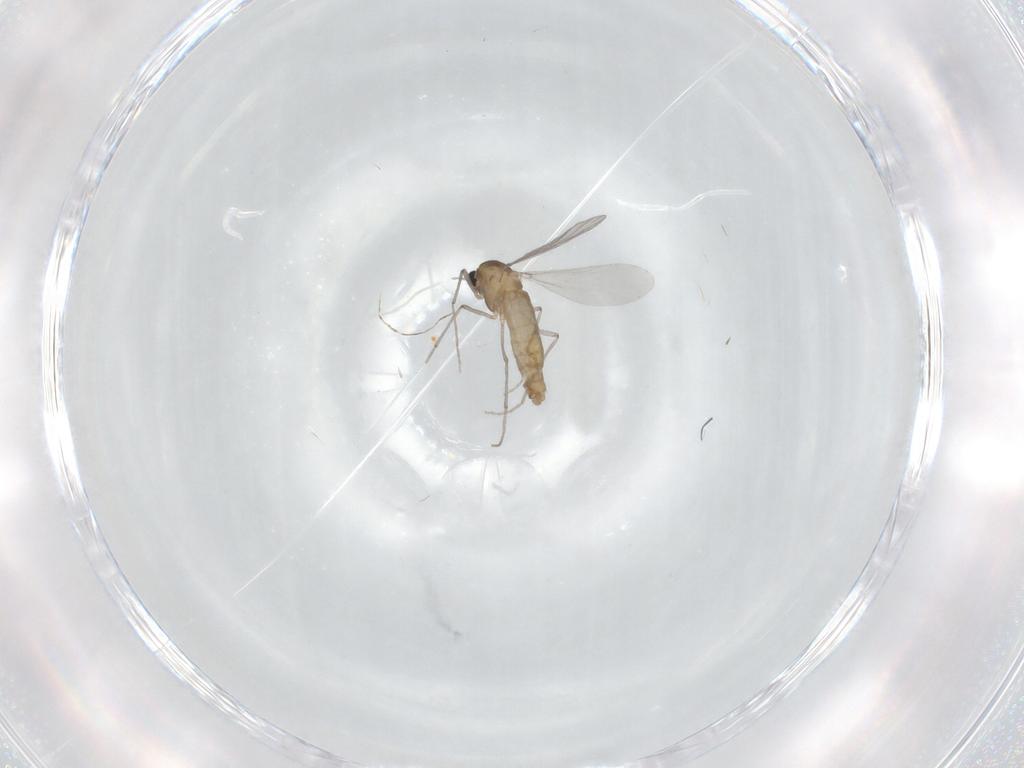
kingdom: Animalia
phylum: Arthropoda
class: Insecta
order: Diptera
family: Chironomidae
